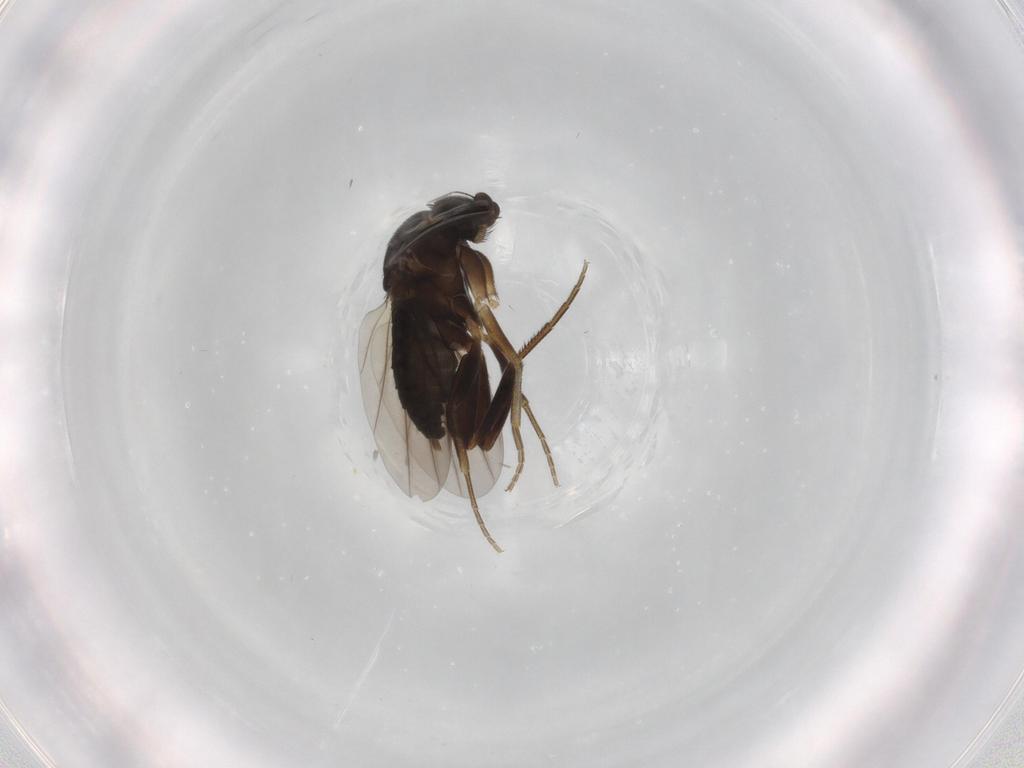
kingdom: Animalia
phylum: Arthropoda
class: Insecta
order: Diptera
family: Phoridae
